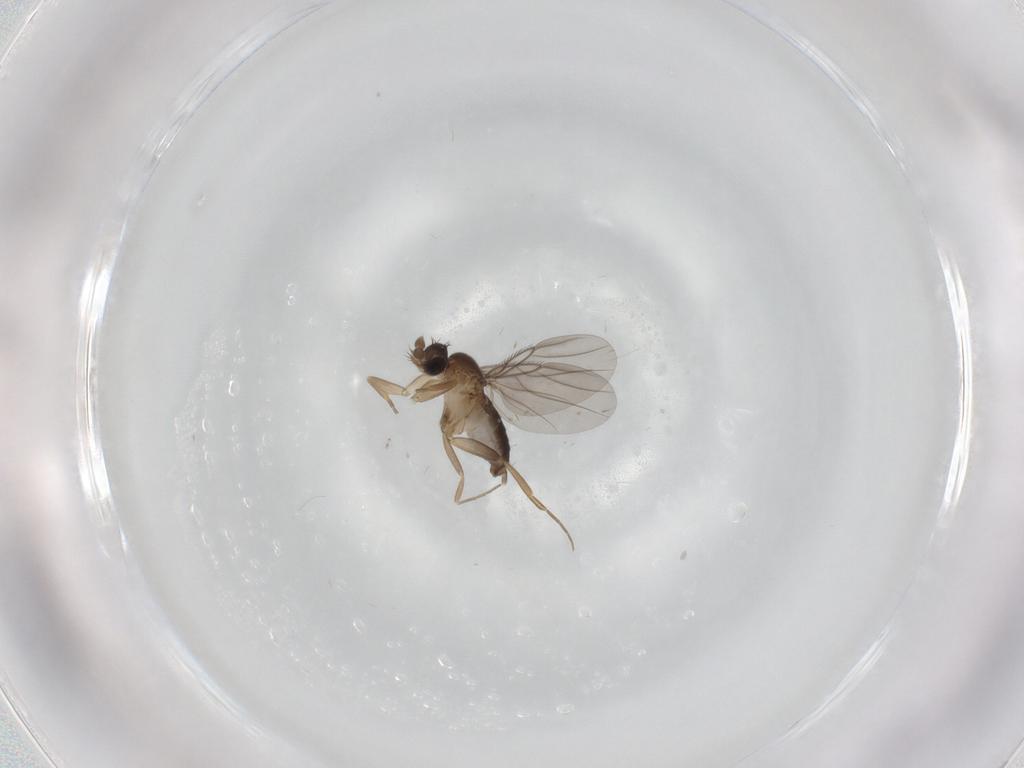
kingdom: Animalia
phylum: Arthropoda
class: Insecta
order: Diptera
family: Phoridae
